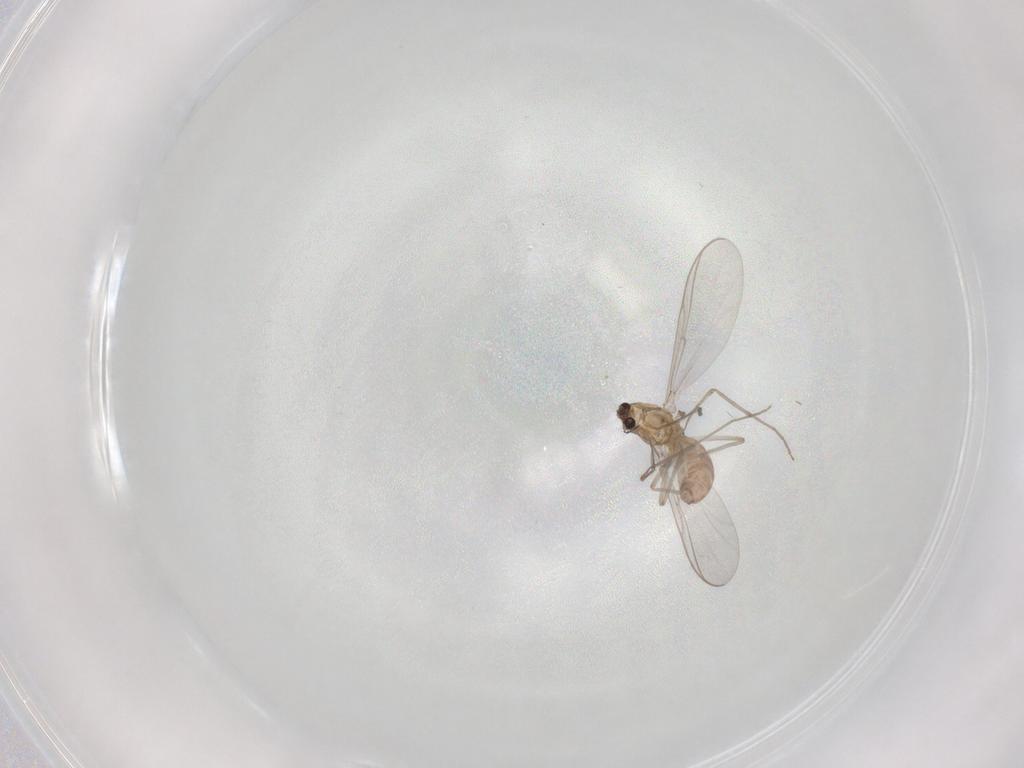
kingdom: Animalia
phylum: Arthropoda
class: Insecta
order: Diptera
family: Chironomidae
